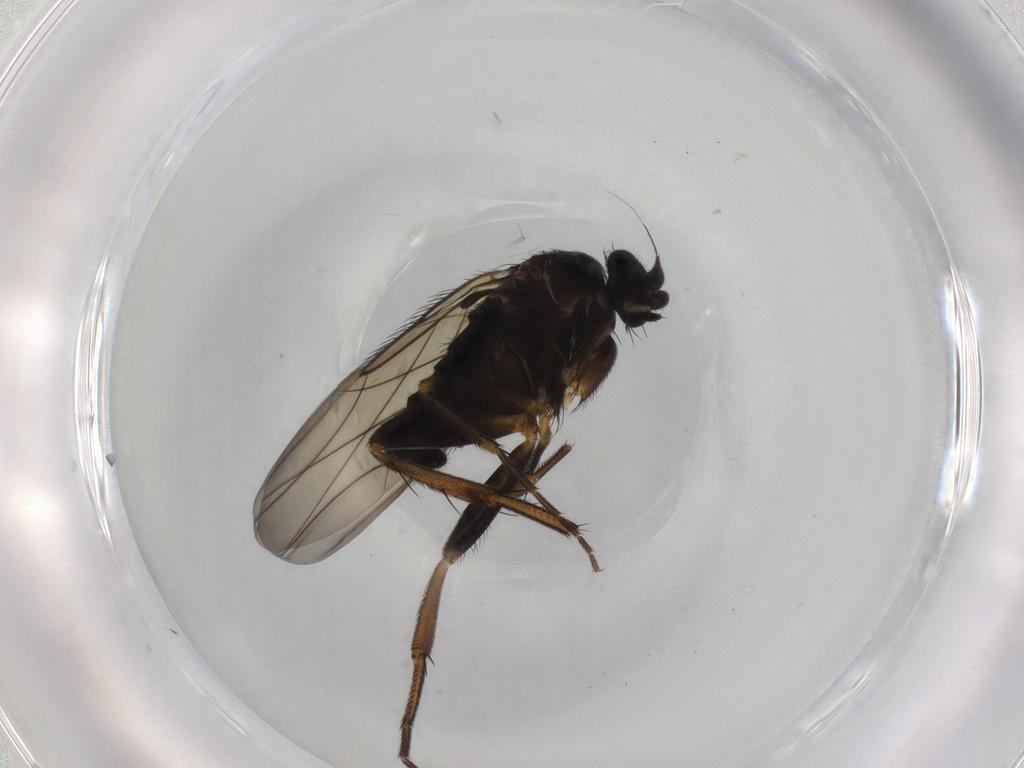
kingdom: Animalia
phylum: Arthropoda
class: Insecta
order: Diptera
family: Phoridae
